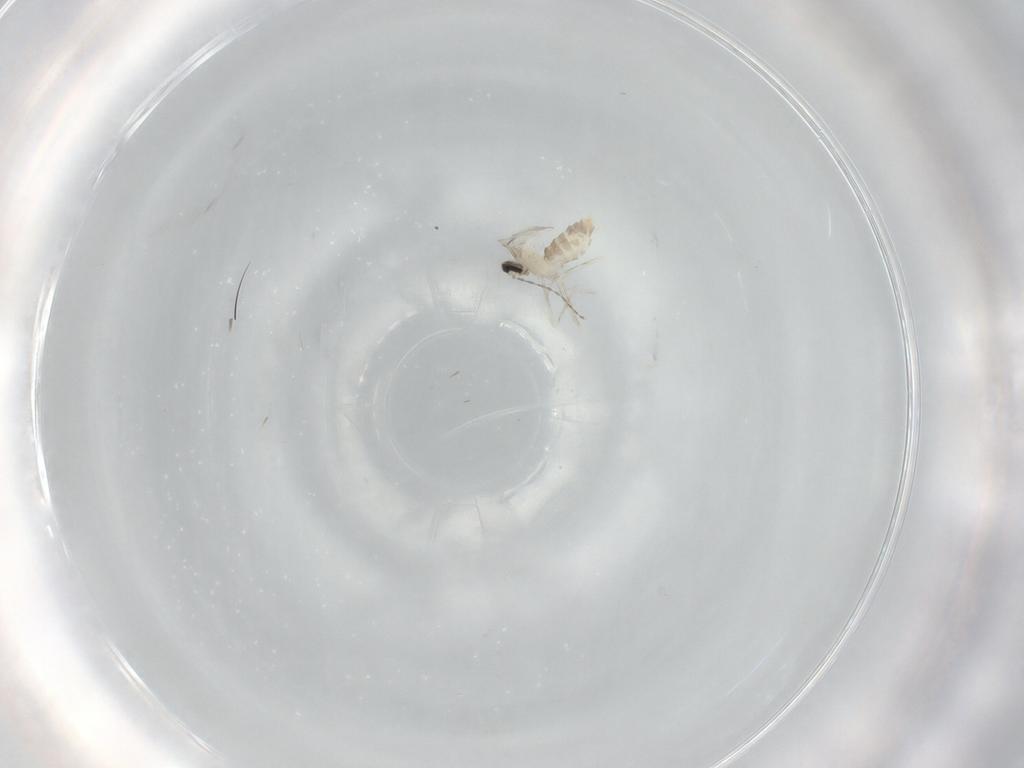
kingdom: Animalia
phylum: Arthropoda
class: Insecta
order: Diptera
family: Cecidomyiidae
